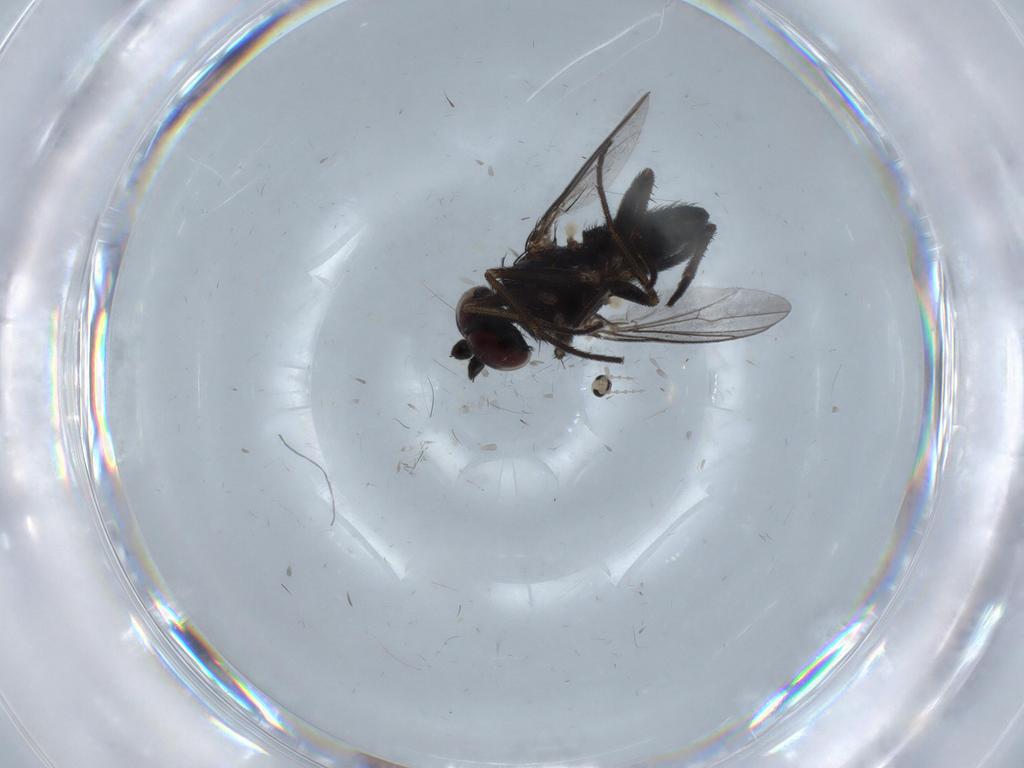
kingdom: Animalia
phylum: Arthropoda
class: Insecta
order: Diptera
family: Dolichopodidae
